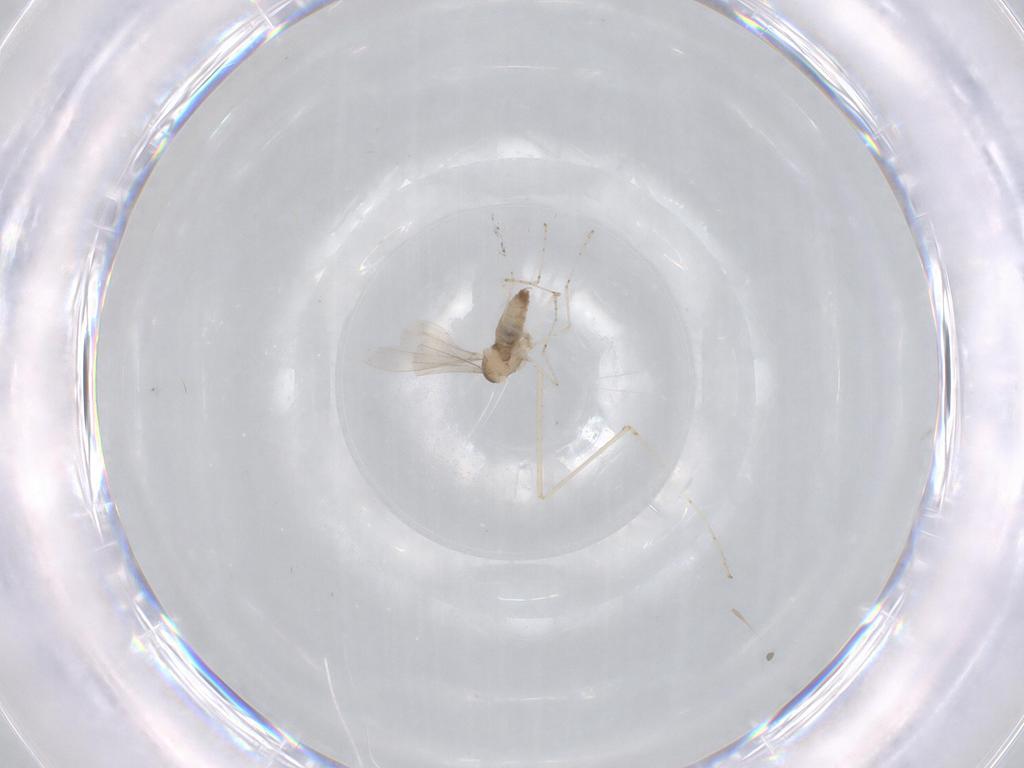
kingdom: Animalia
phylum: Arthropoda
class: Insecta
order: Diptera
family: Cecidomyiidae
